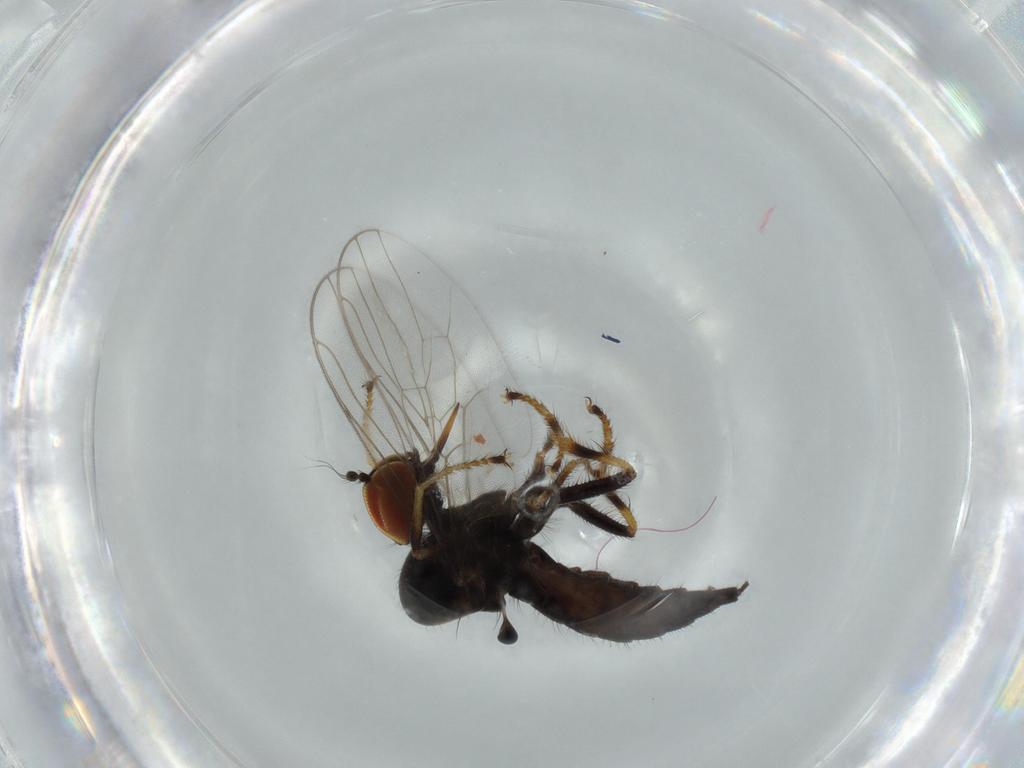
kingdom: Animalia
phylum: Arthropoda
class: Insecta
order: Diptera
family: Hybotidae
